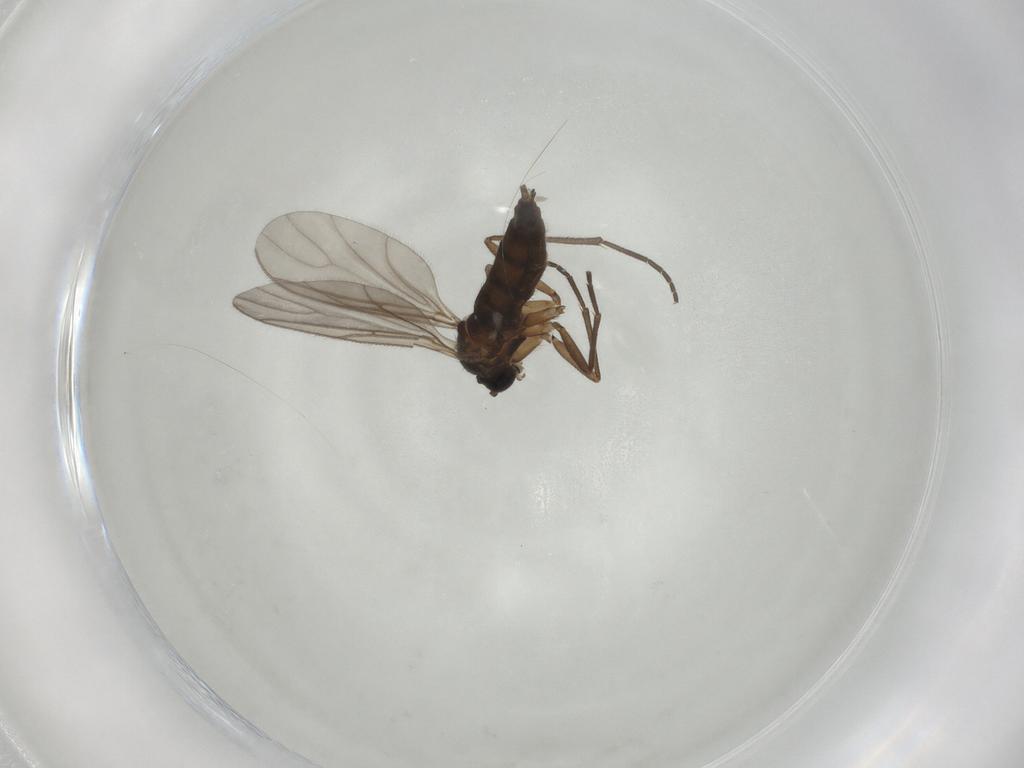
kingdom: Animalia
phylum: Arthropoda
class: Insecta
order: Diptera
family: Sciaridae
